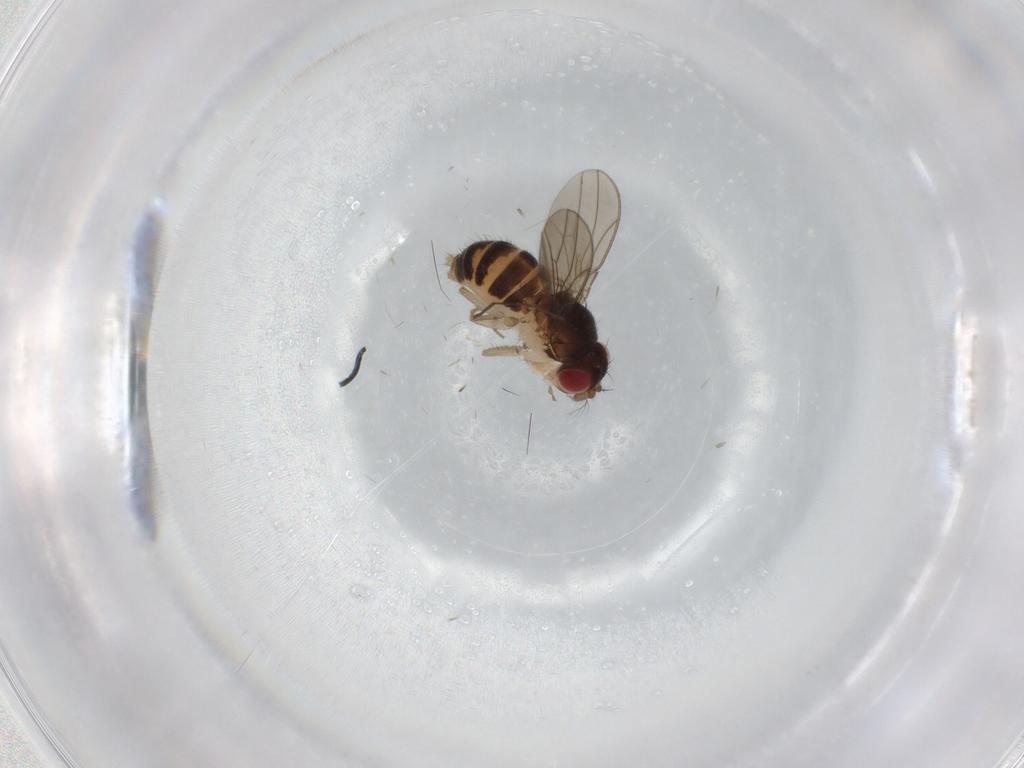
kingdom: Animalia
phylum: Arthropoda
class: Insecta
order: Diptera
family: Drosophilidae
